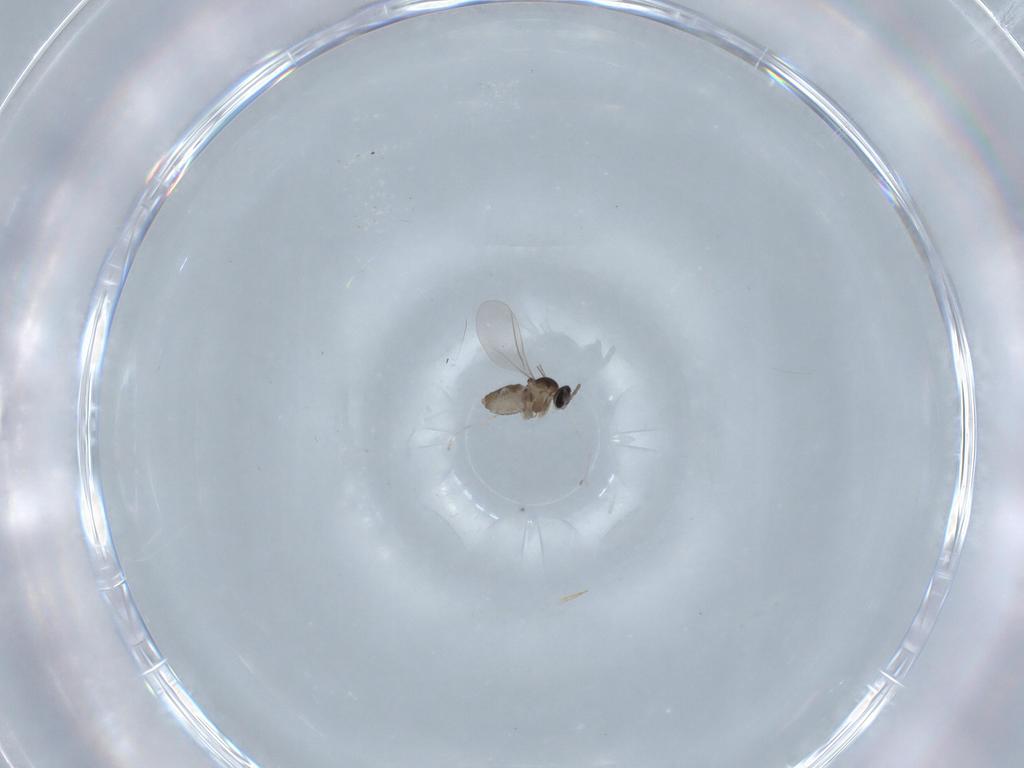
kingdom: Animalia
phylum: Arthropoda
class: Insecta
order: Diptera
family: Cecidomyiidae
